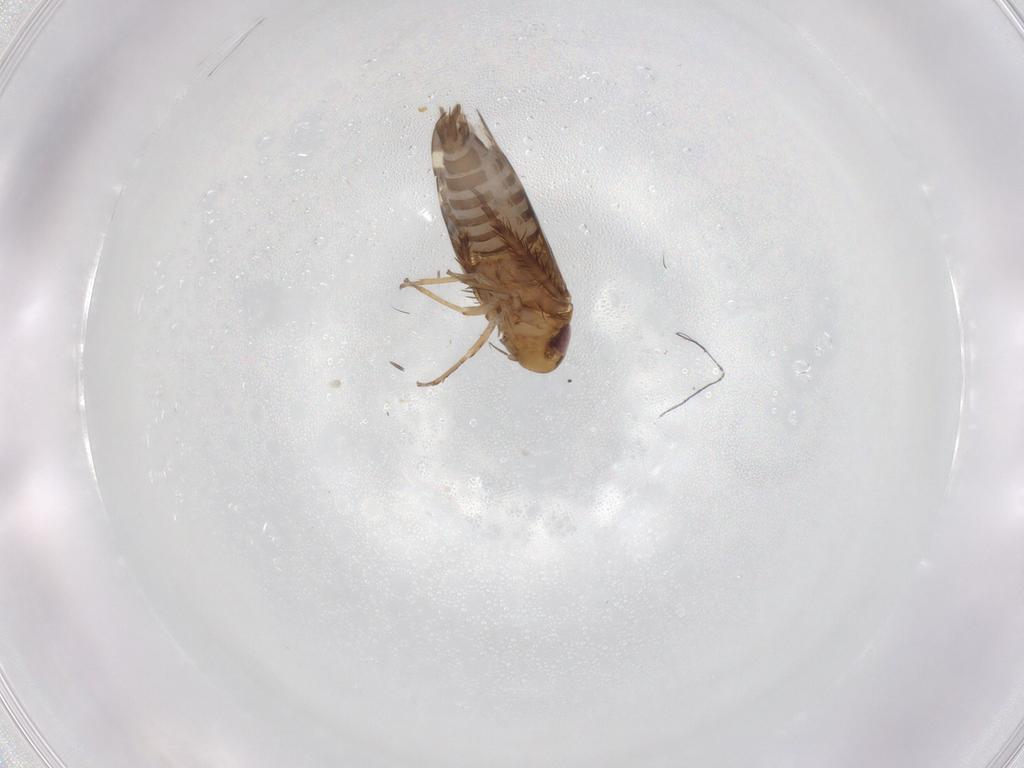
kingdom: Animalia
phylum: Arthropoda
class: Insecta
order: Hemiptera
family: Cicadellidae
